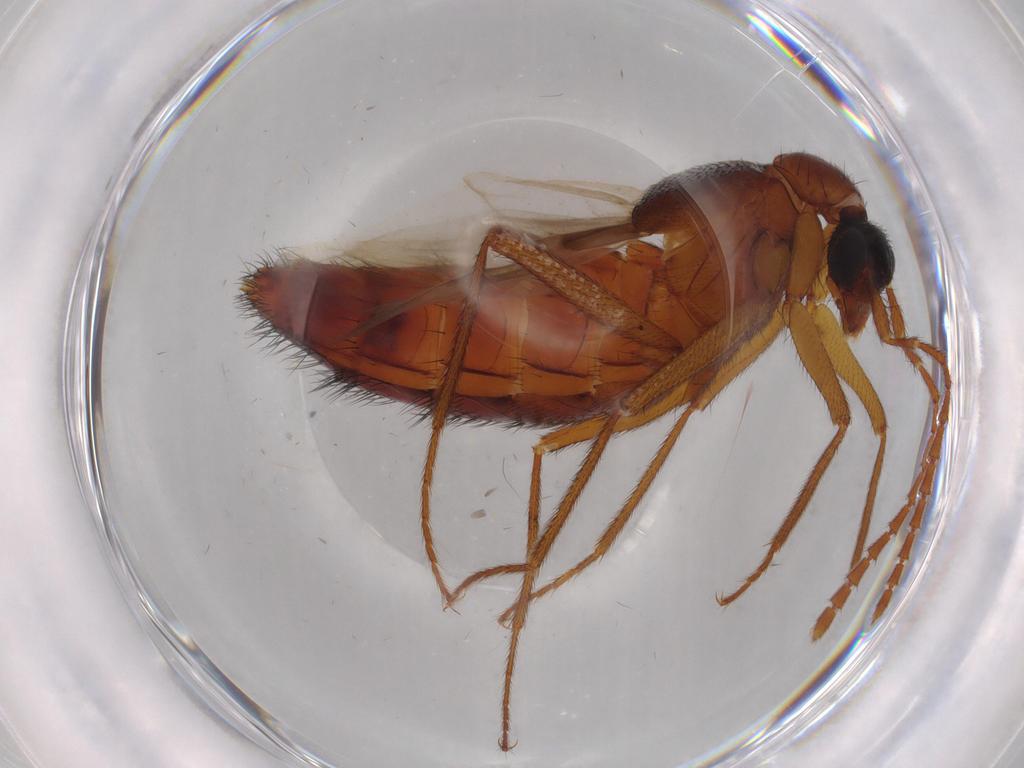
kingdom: Animalia
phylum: Arthropoda
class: Insecta
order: Coleoptera
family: Staphylinidae
